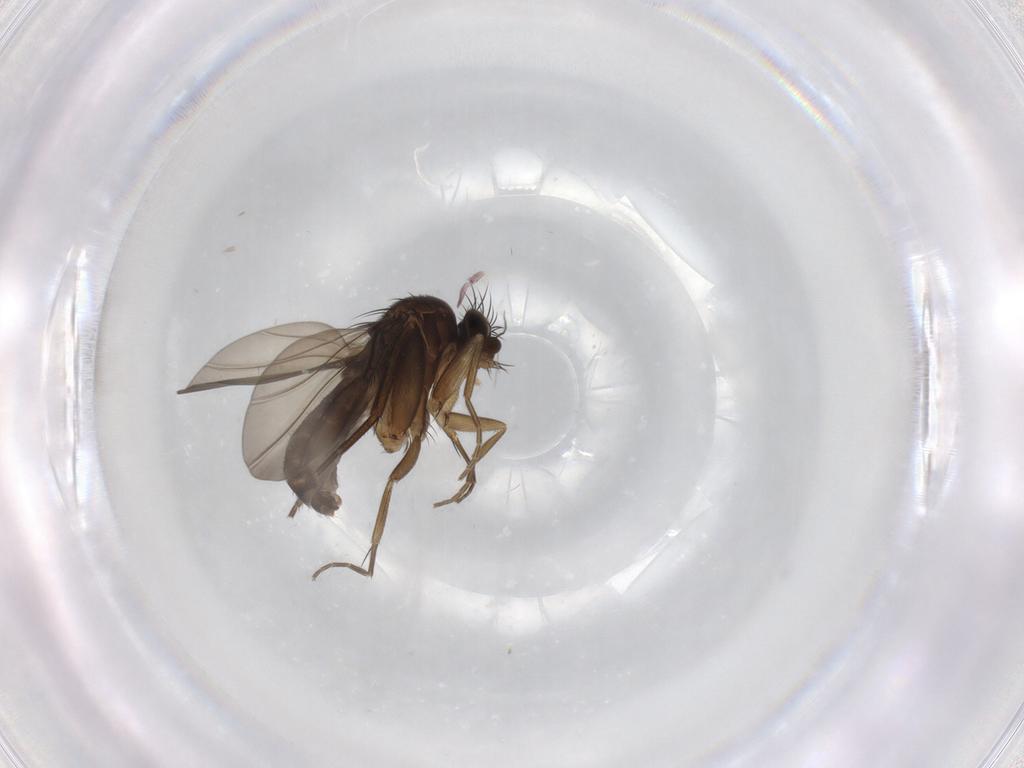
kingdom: Animalia
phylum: Arthropoda
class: Insecta
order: Diptera
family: Phoridae
